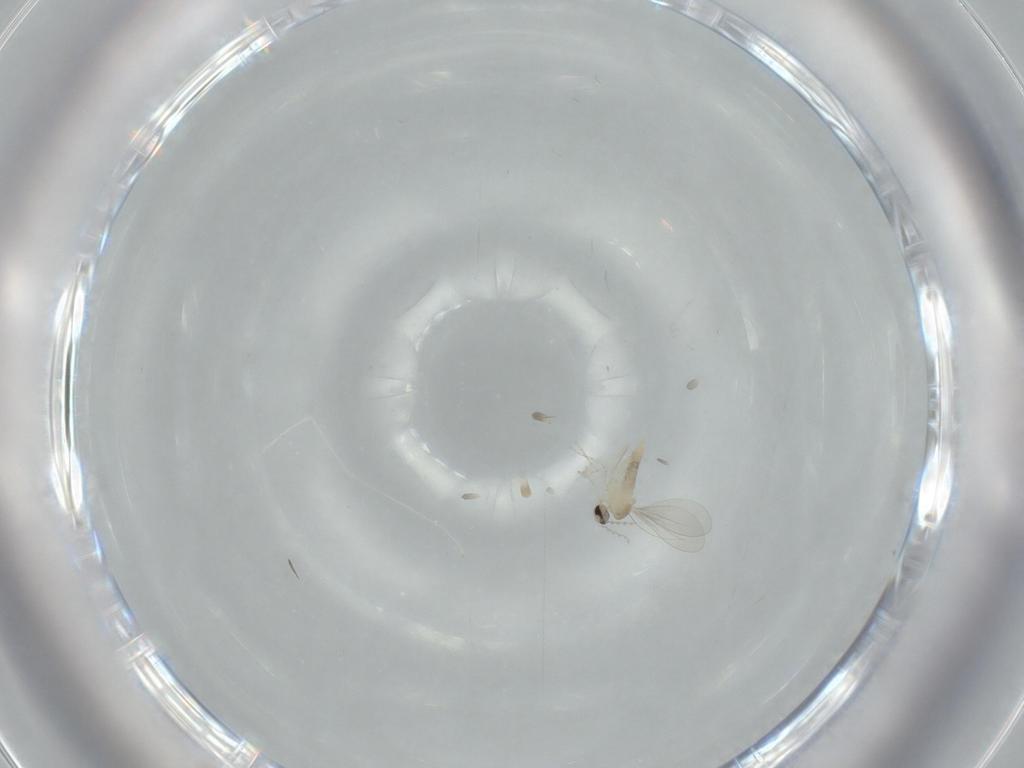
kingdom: Animalia
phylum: Arthropoda
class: Insecta
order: Diptera
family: Cecidomyiidae
